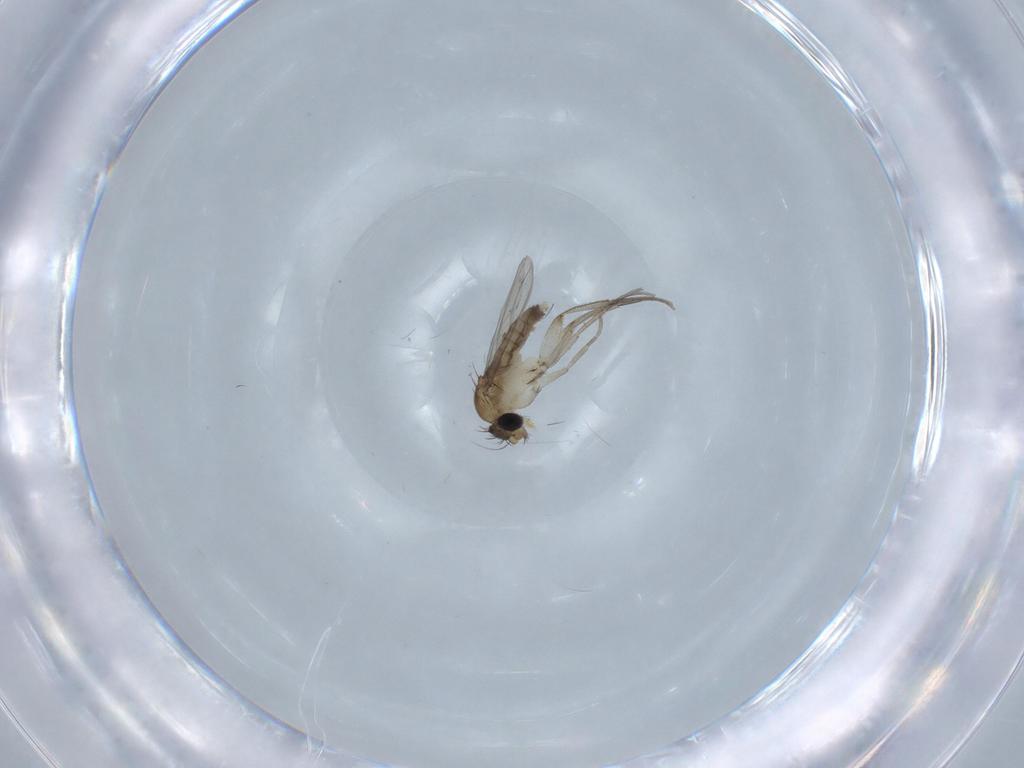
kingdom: Animalia
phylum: Arthropoda
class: Insecta
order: Diptera
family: Phoridae
